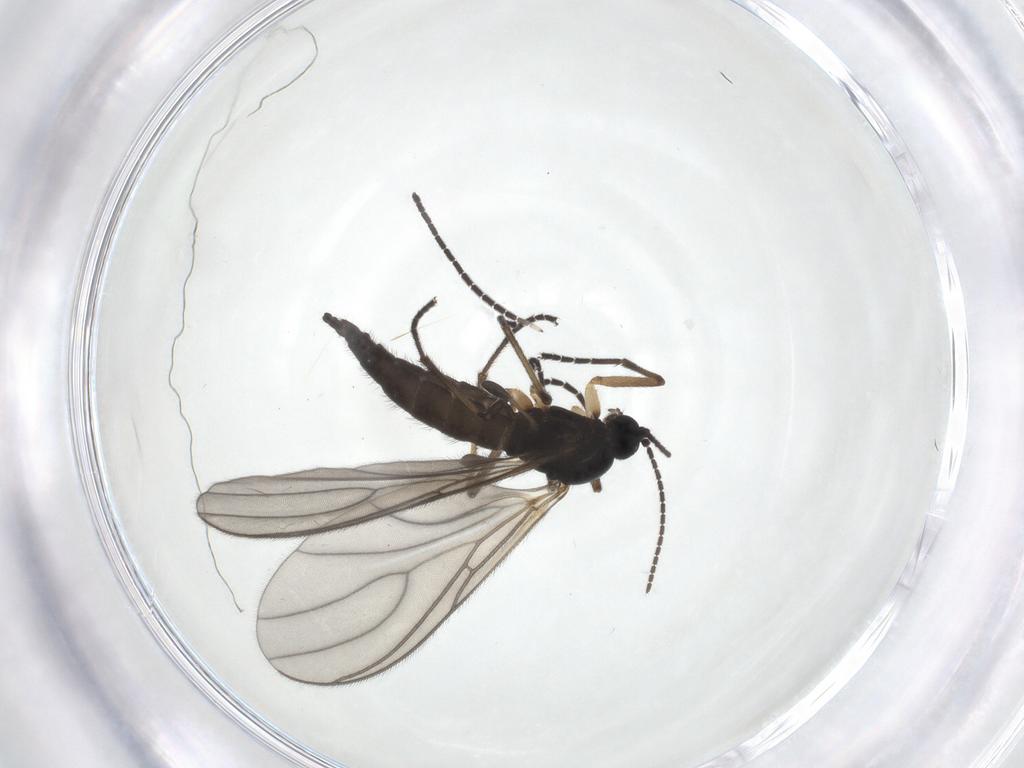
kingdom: Animalia
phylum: Arthropoda
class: Insecta
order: Diptera
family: Sciaridae
